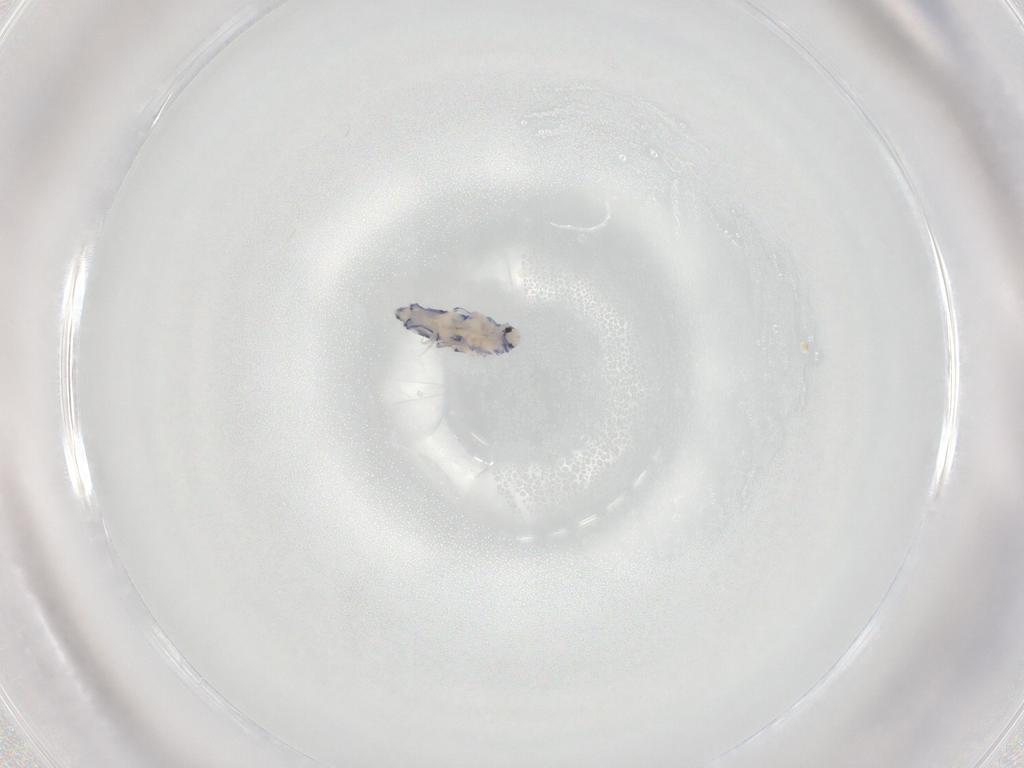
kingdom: Animalia
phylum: Arthropoda
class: Collembola
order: Entomobryomorpha
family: Entomobryidae
